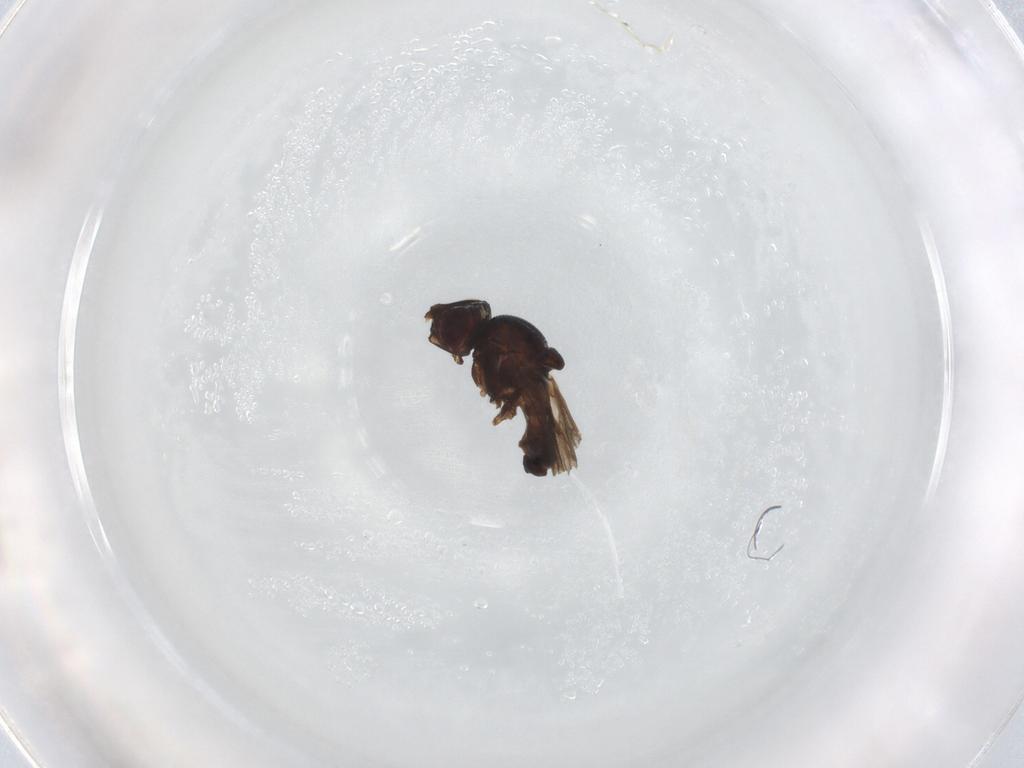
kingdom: Animalia
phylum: Arthropoda
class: Insecta
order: Diptera
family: Chloropidae
